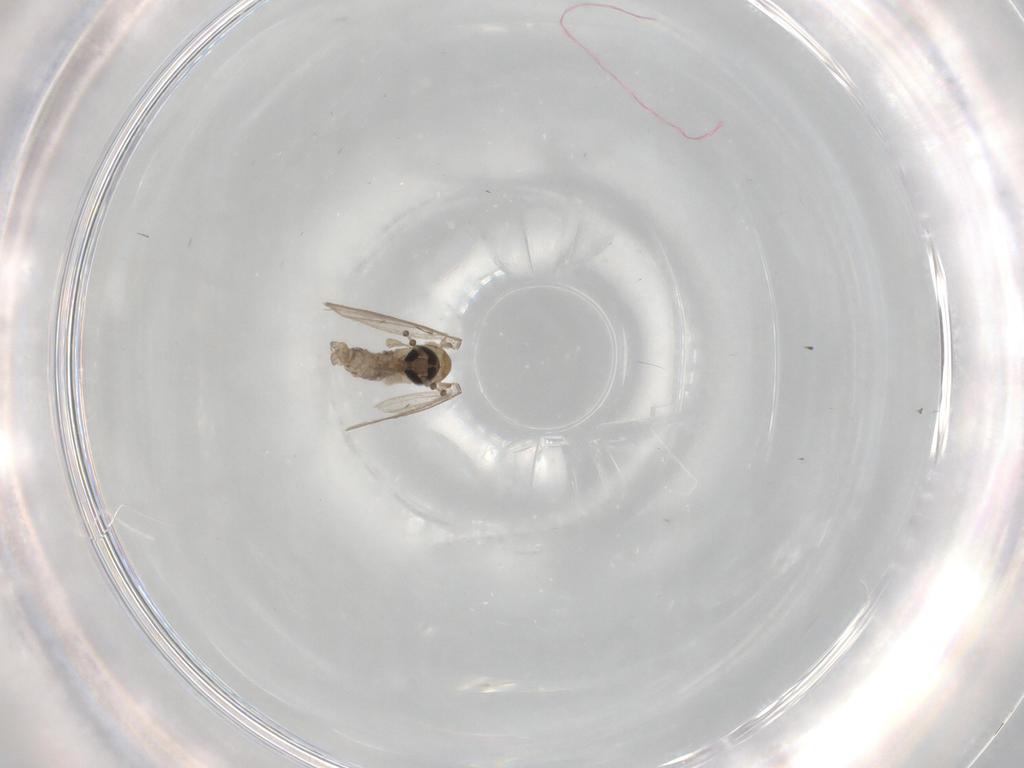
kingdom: Animalia
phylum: Arthropoda
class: Insecta
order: Diptera
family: Psychodidae
